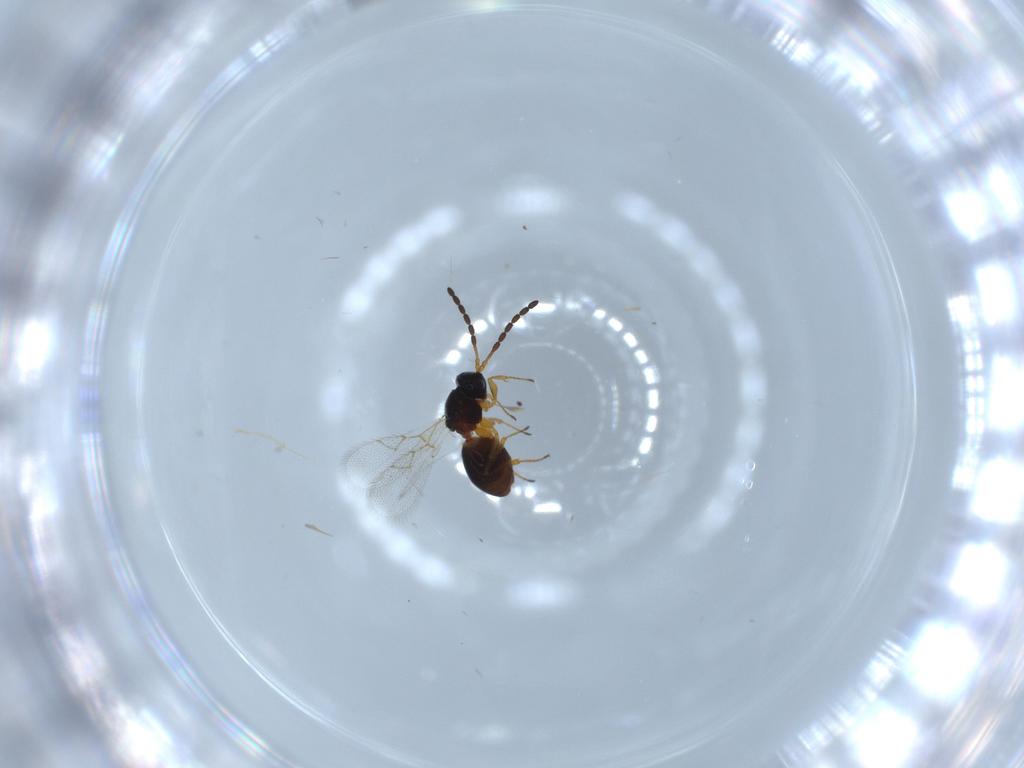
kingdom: Animalia
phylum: Arthropoda
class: Insecta
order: Hymenoptera
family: Figitidae
